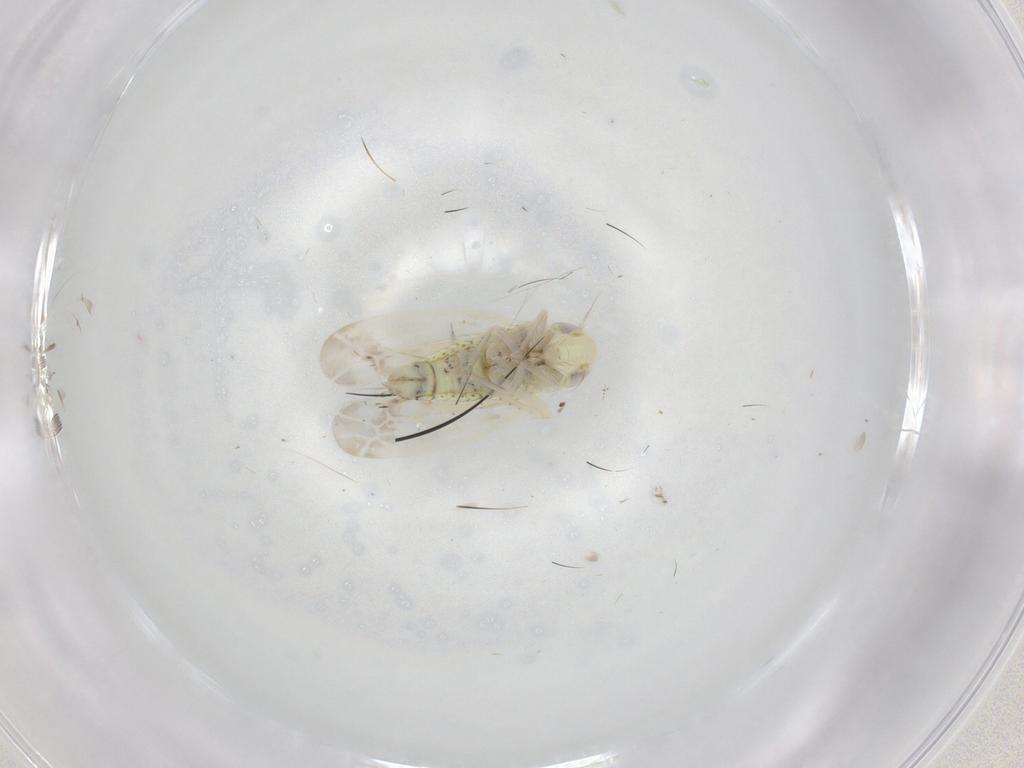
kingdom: Animalia
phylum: Arthropoda
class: Insecta
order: Hemiptera
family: Cicadellidae
